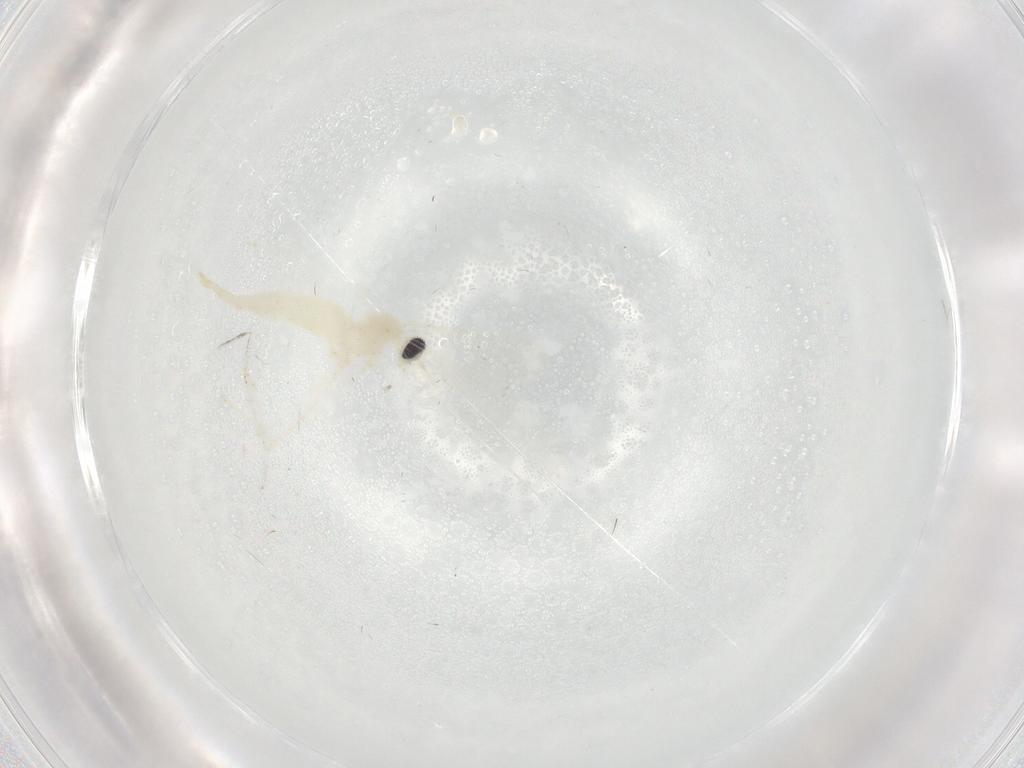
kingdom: Animalia
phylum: Arthropoda
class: Insecta
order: Diptera
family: Cecidomyiidae
